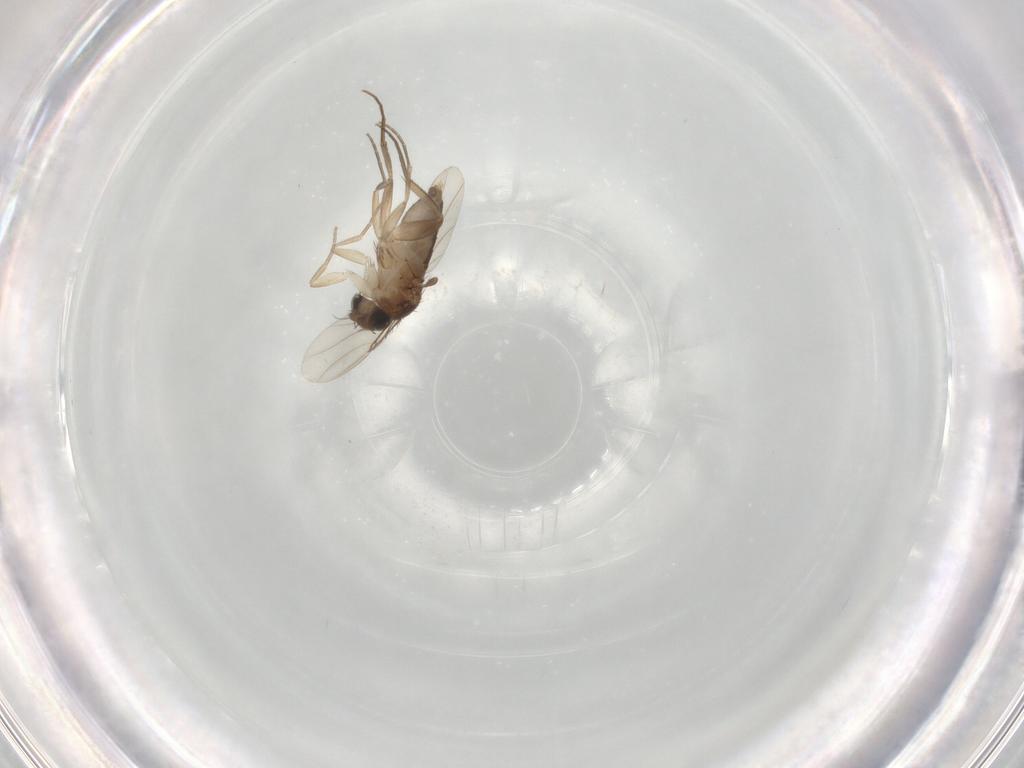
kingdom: Animalia
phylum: Arthropoda
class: Insecta
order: Diptera
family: Phoridae
